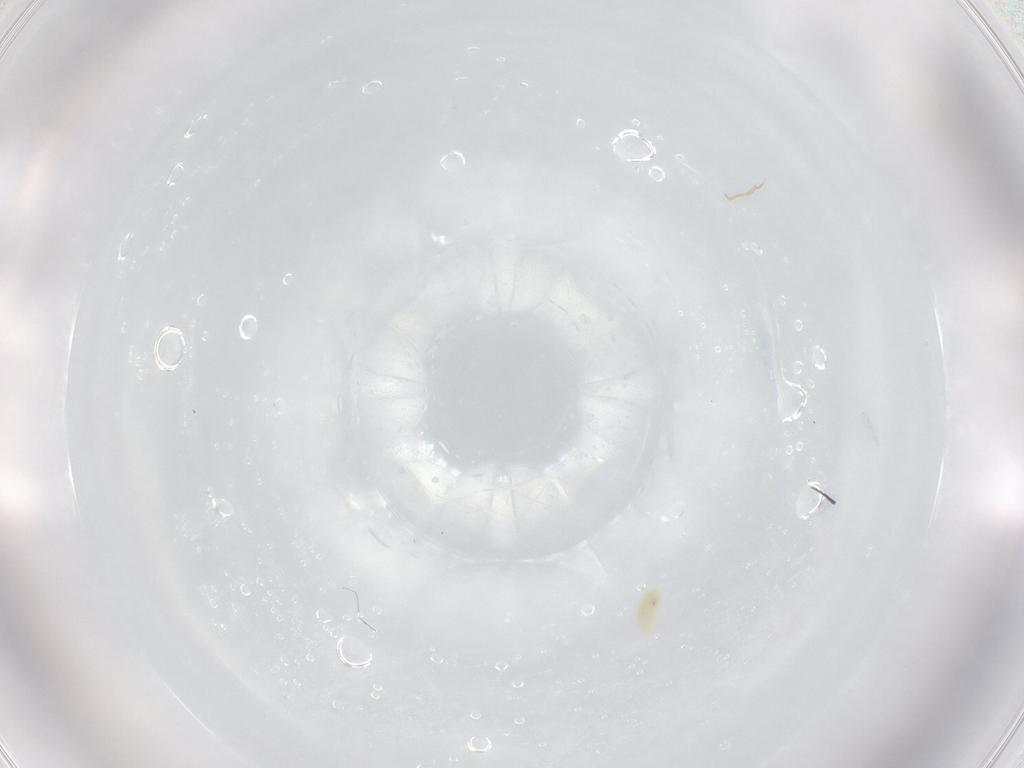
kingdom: Animalia
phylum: Arthropoda
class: Arachnida
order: Trombidiformes
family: Eupodidae
